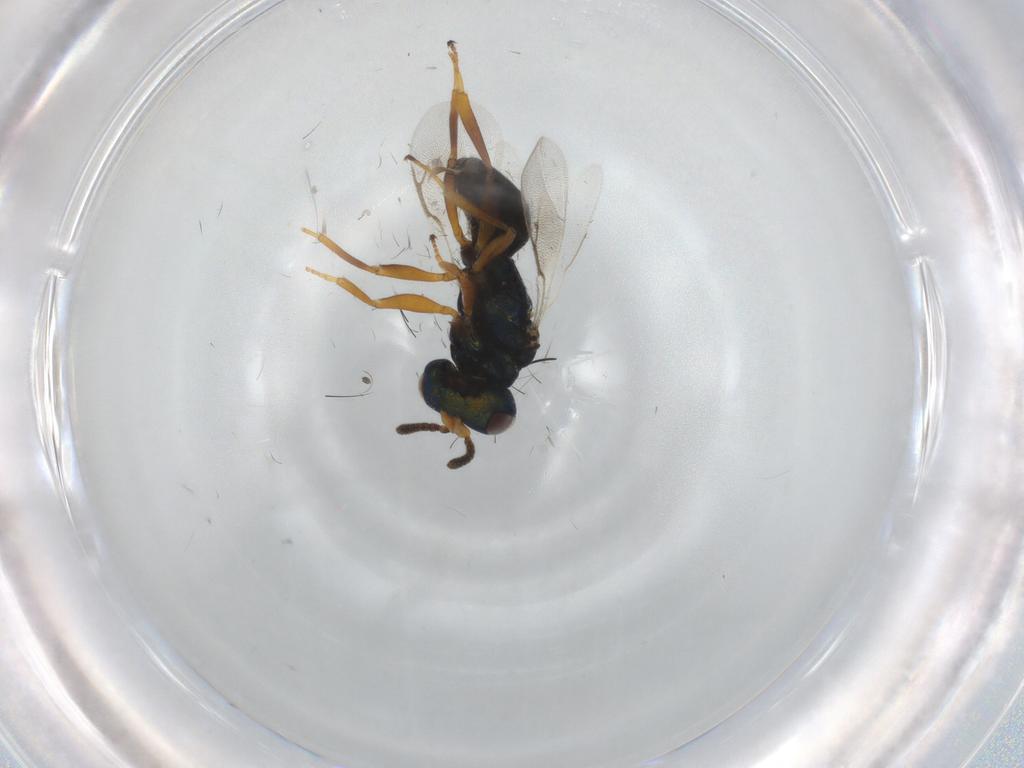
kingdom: Animalia
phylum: Arthropoda
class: Insecta
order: Hymenoptera
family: Pteromalidae
